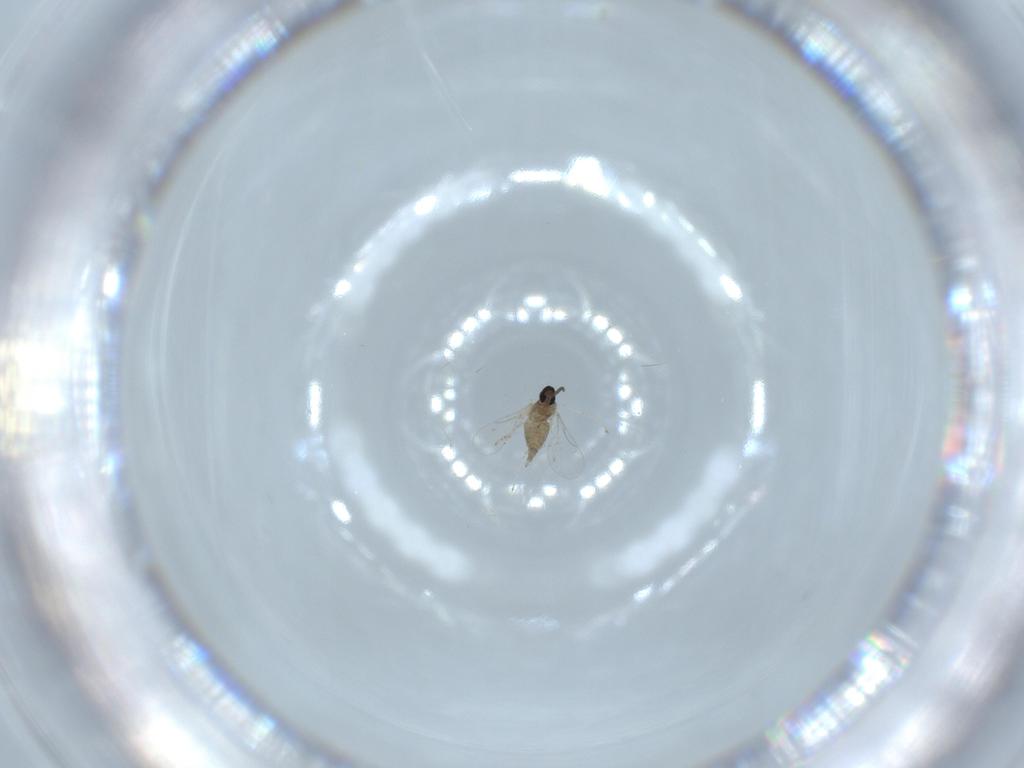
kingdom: Animalia
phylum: Arthropoda
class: Insecta
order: Diptera
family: Cecidomyiidae
